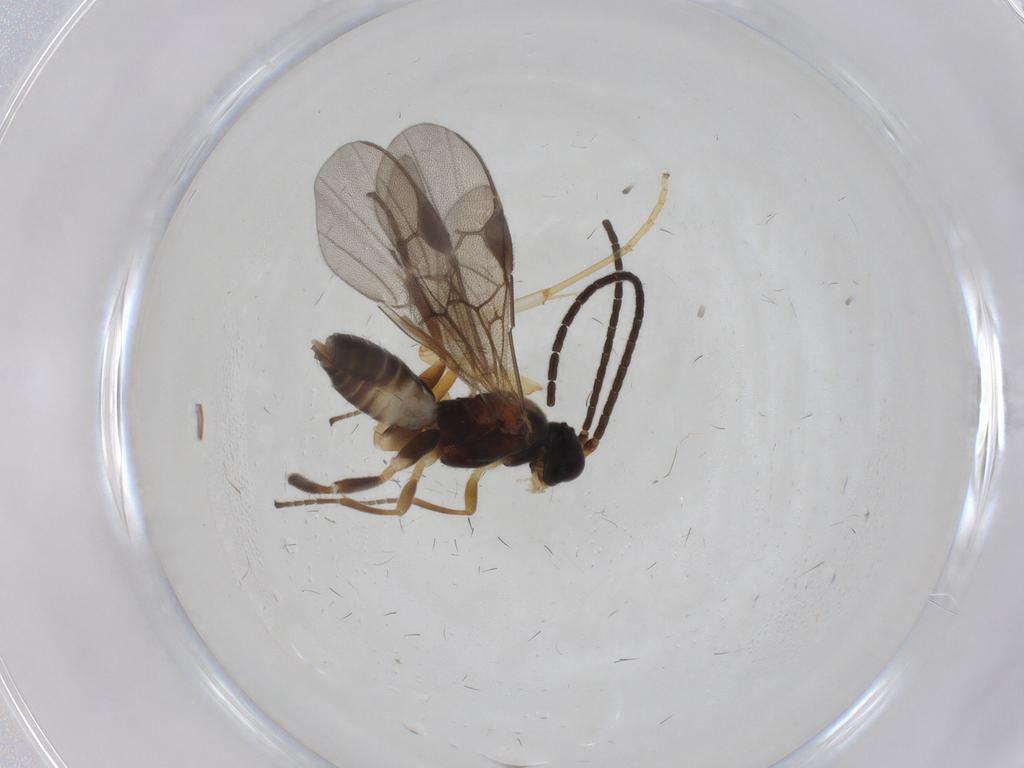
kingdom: Animalia
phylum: Arthropoda
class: Insecta
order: Hymenoptera
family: Braconidae
